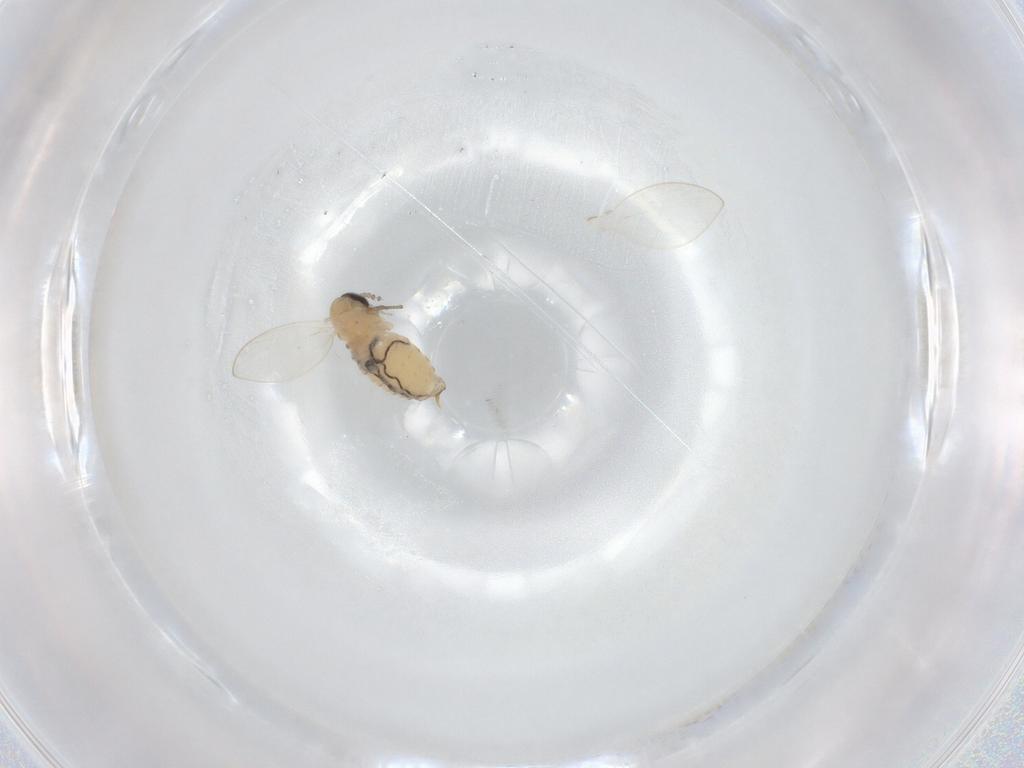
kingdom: Animalia
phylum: Arthropoda
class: Insecta
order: Diptera
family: Psychodidae
